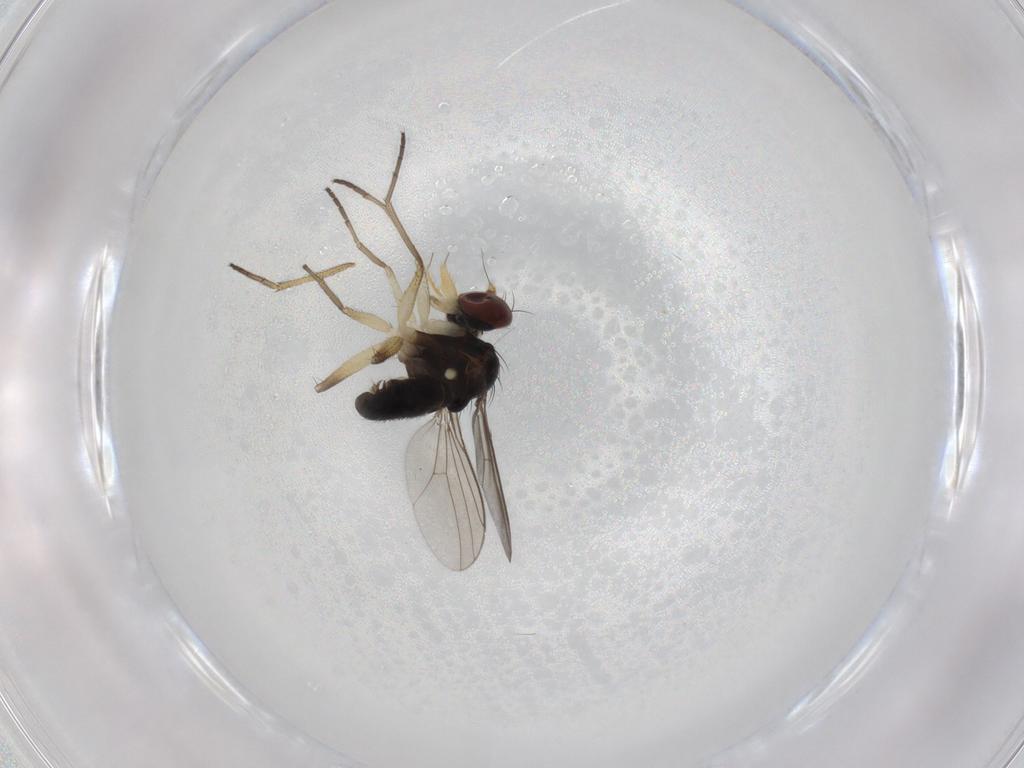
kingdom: Animalia
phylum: Arthropoda
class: Insecta
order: Diptera
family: Dolichopodidae
